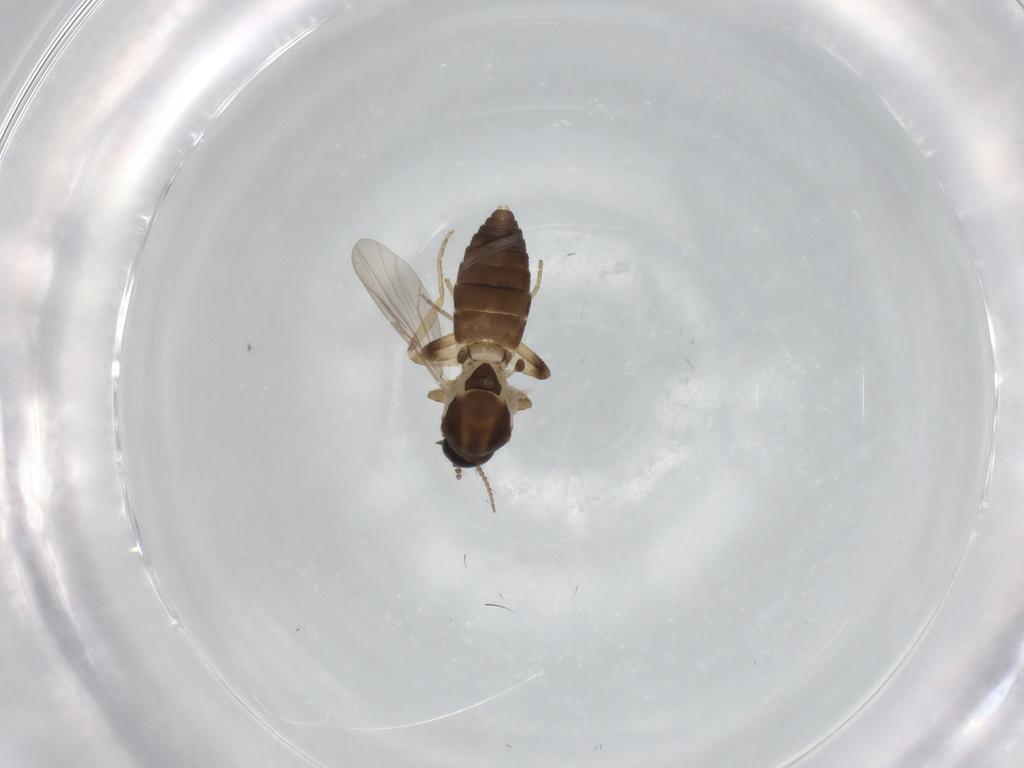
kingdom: Animalia
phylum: Arthropoda
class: Insecta
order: Diptera
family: Ceratopogonidae
